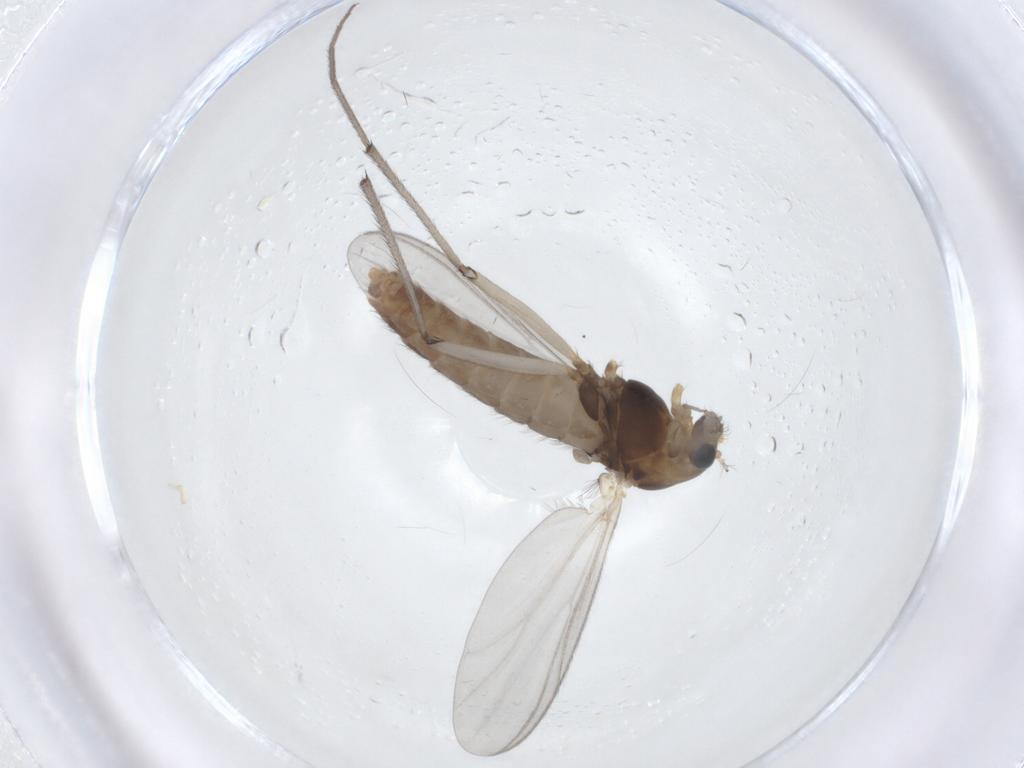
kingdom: Animalia
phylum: Arthropoda
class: Insecta
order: Diptera
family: Chironomidae
